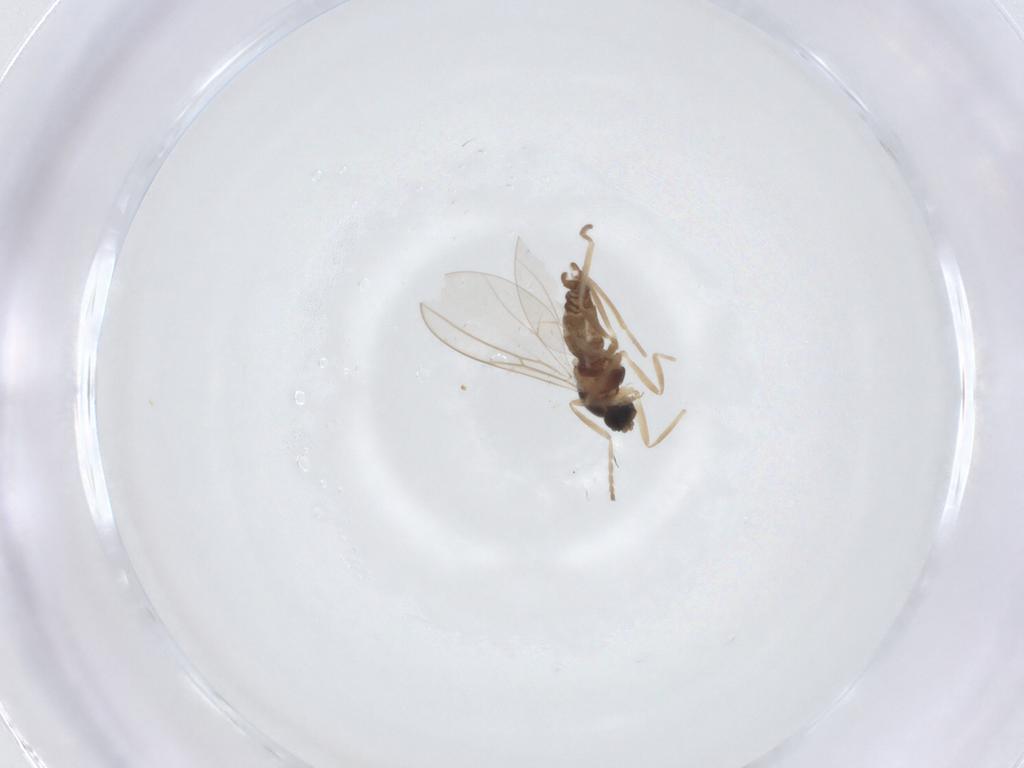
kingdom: Animalia
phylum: Arthropoda
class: Insecta
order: Diptera
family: Cecidomyiidae
